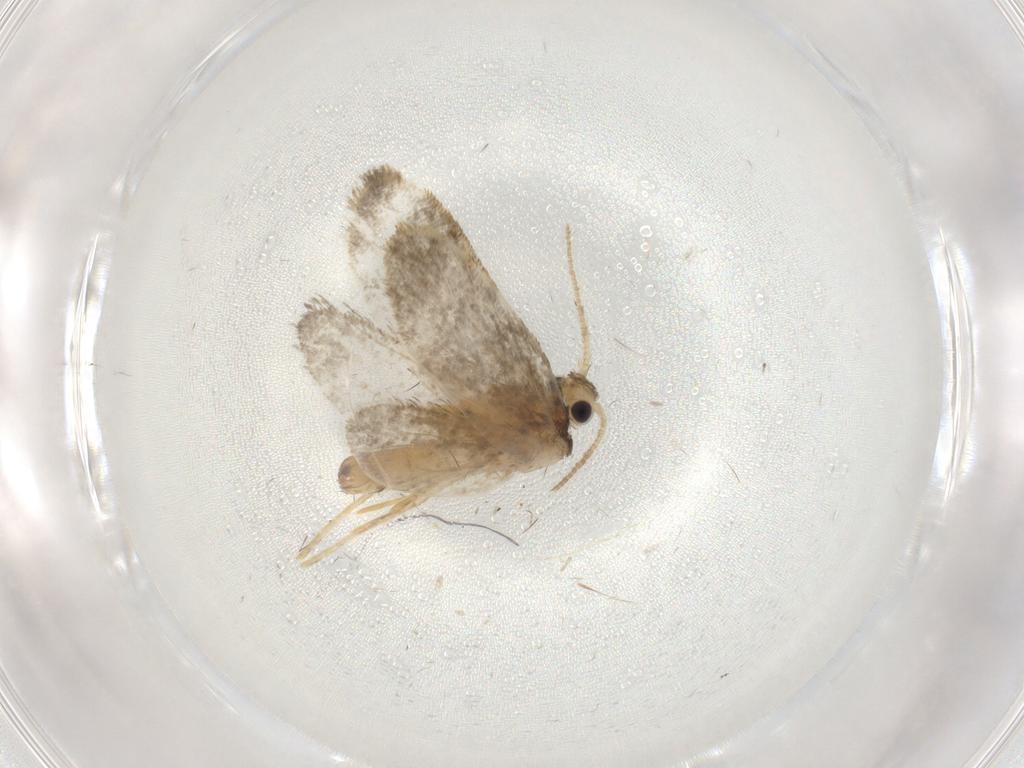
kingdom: Animalia
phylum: Arthropoda
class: Insecta
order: Lepidoptera
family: Psychidae
